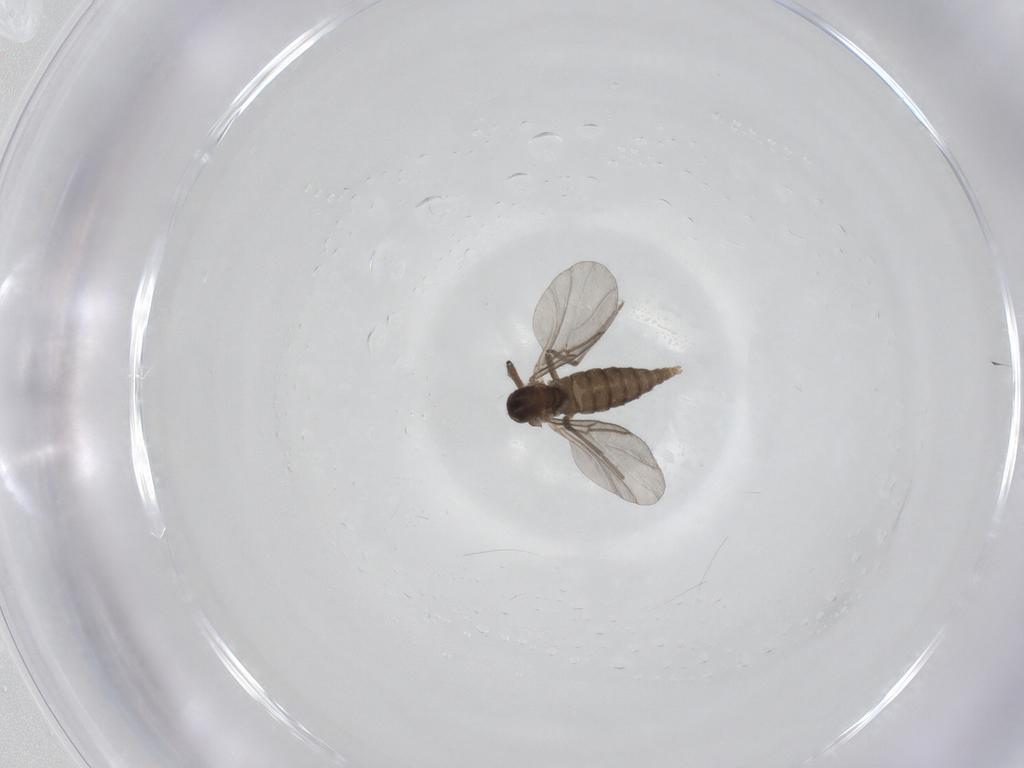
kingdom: Animalia
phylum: Arthropoda
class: Insecta
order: Diptera
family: Cecidomyiidae
